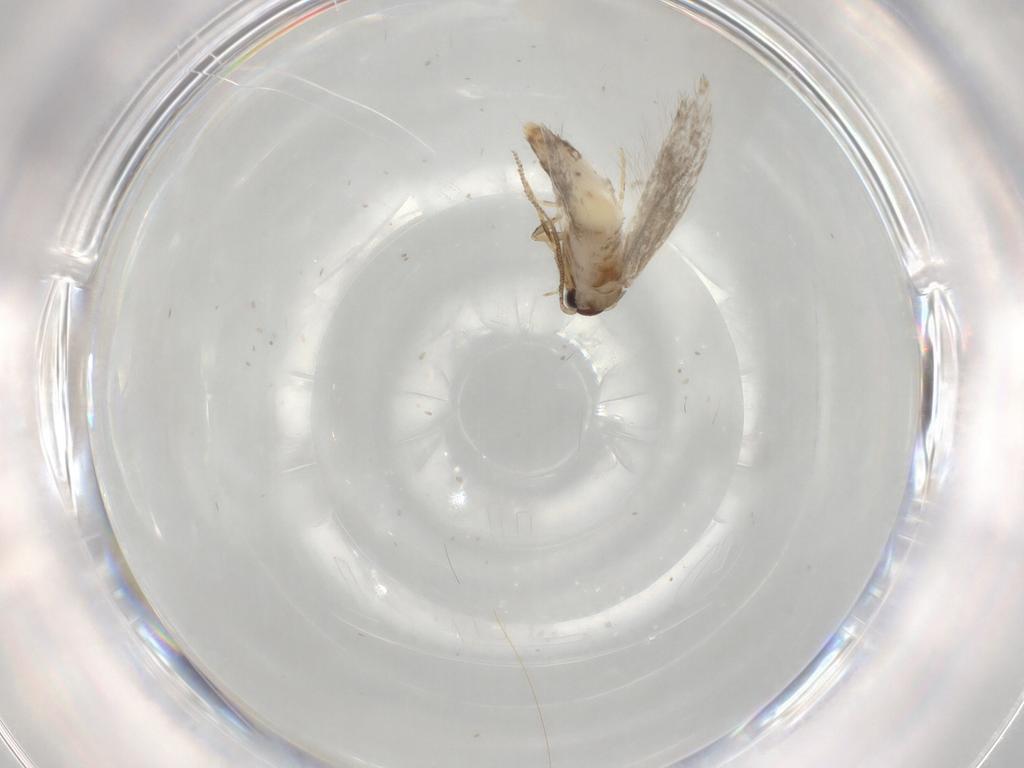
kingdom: Animalia
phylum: Arthropoda
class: Insecta
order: Lepidoptera
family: Tineidae
